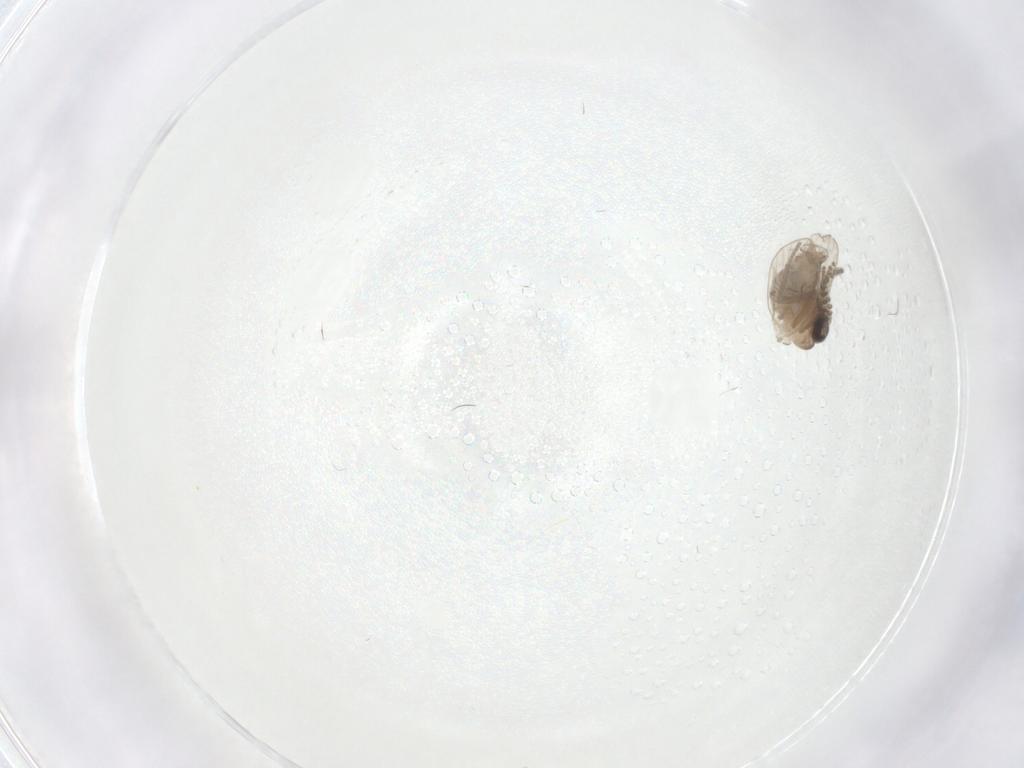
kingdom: Animalia
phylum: Arthropoda
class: Insecta
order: Diptera
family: Psychodidae
